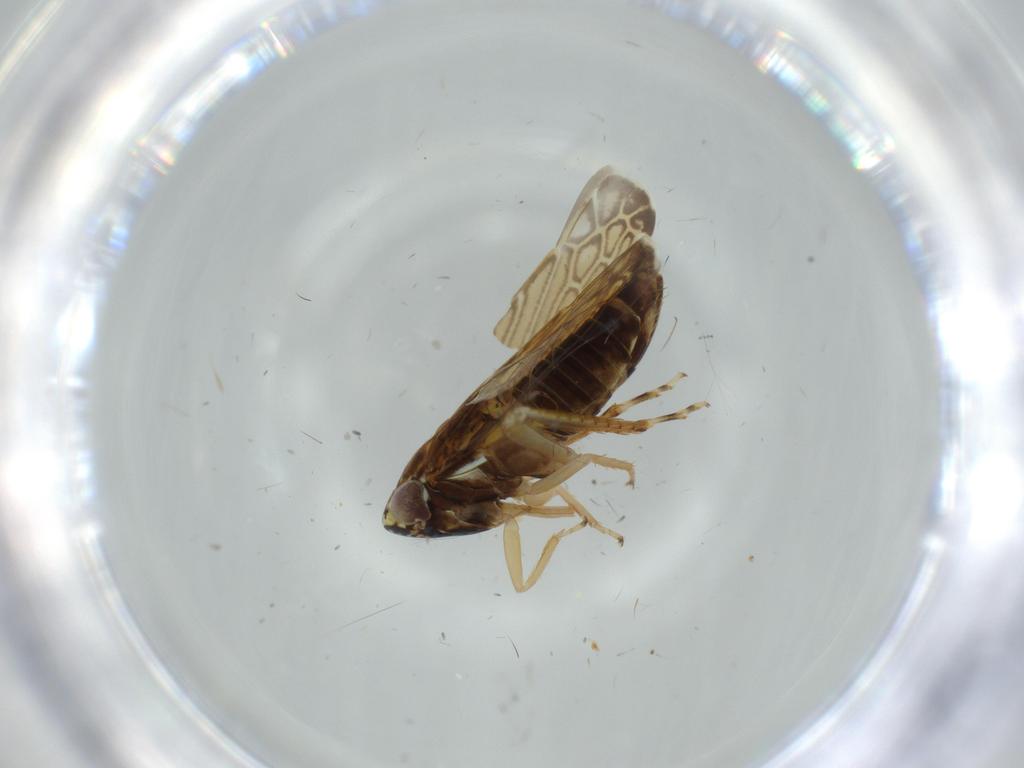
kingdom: Animalia
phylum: Arthropoda
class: Insecta
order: Hemiptera
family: Cicadellidae
